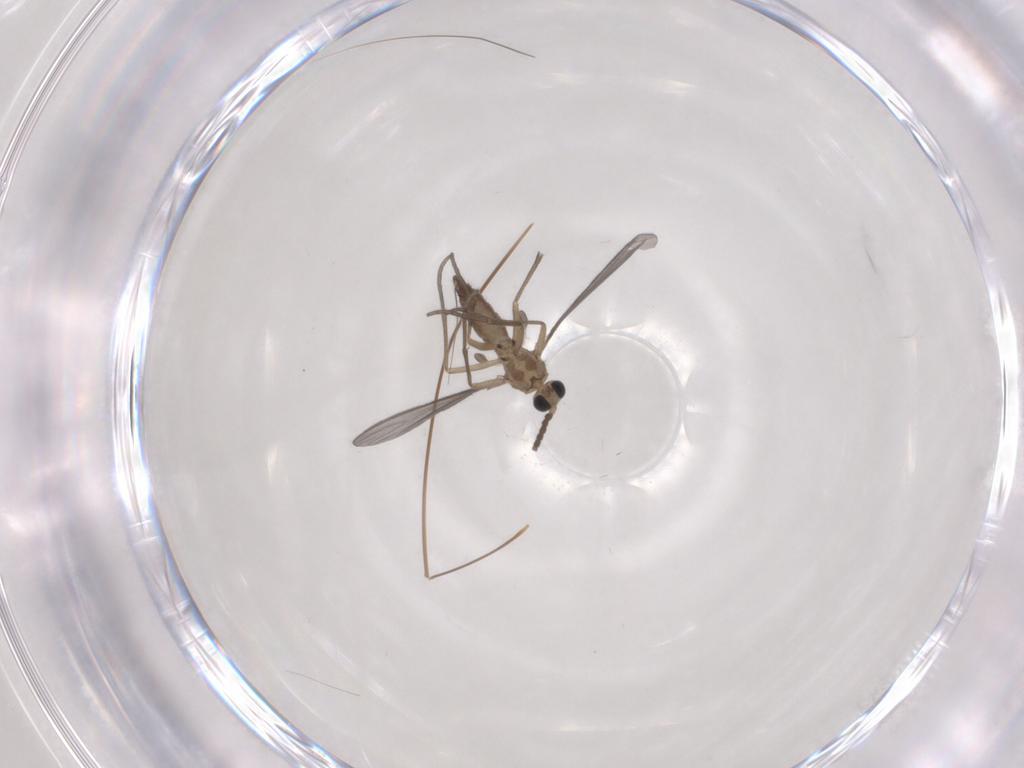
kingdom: Animalia
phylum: Arthropoda
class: Insecta
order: Diptera
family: Sciaridae
